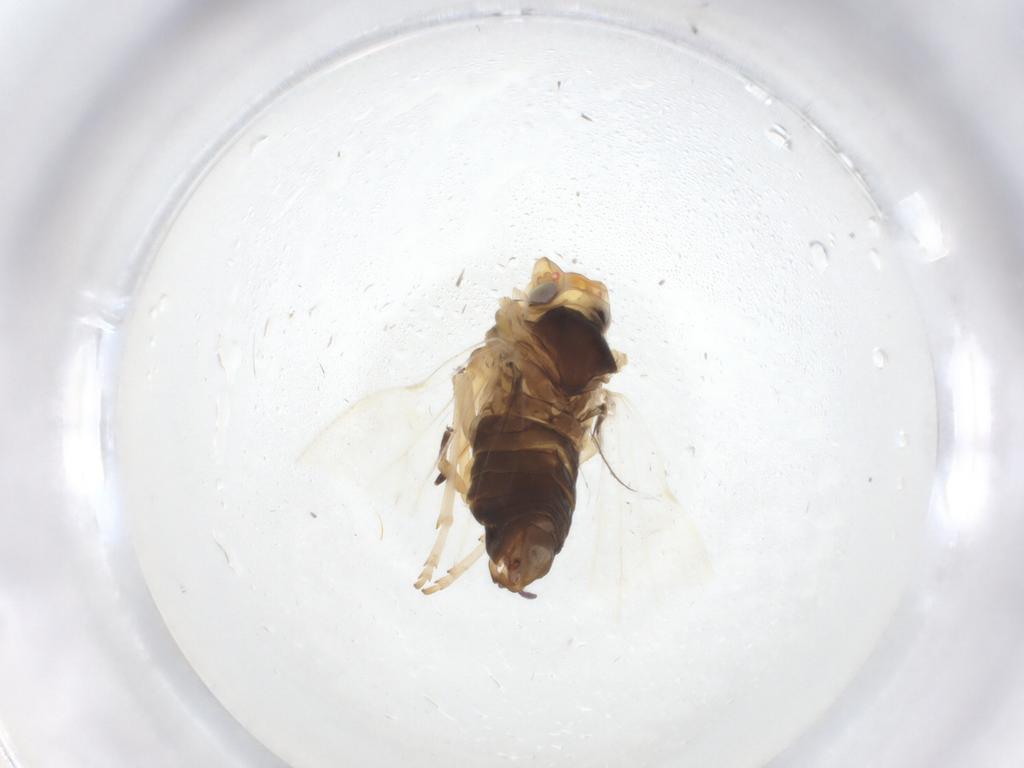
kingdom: Animalia
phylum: Arthropoda
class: Insecta
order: Hemiptera
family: Cixiidae
